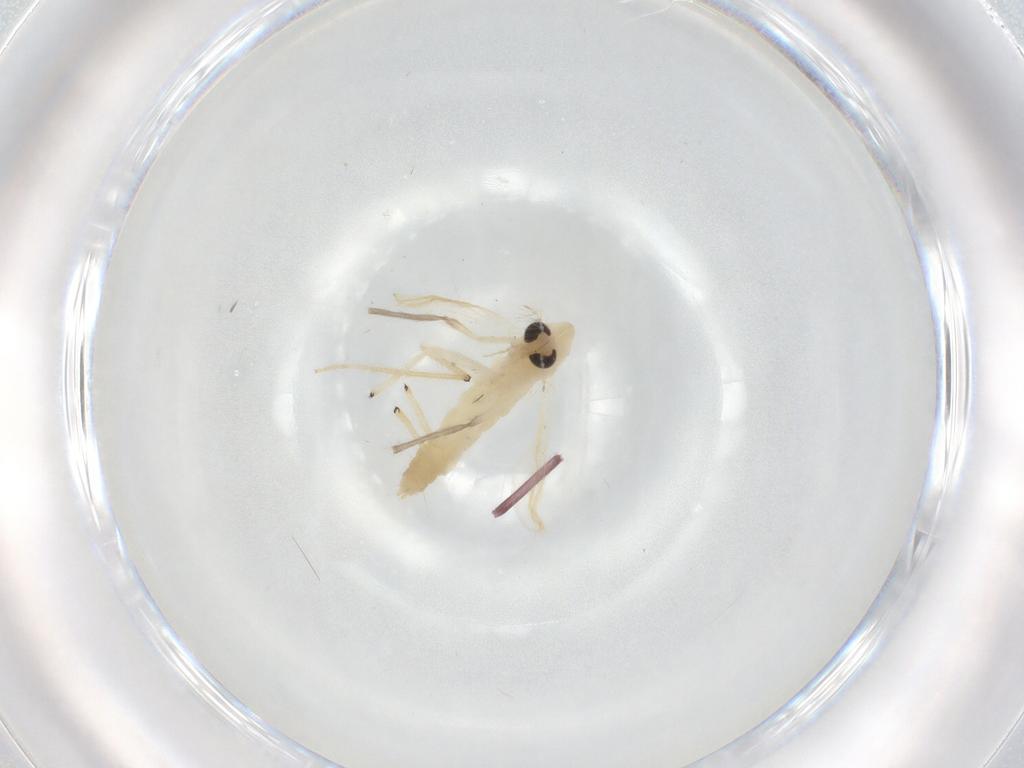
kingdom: Animalia
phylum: Arthropoda
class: Insecta
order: Diptera
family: Chironomidae
